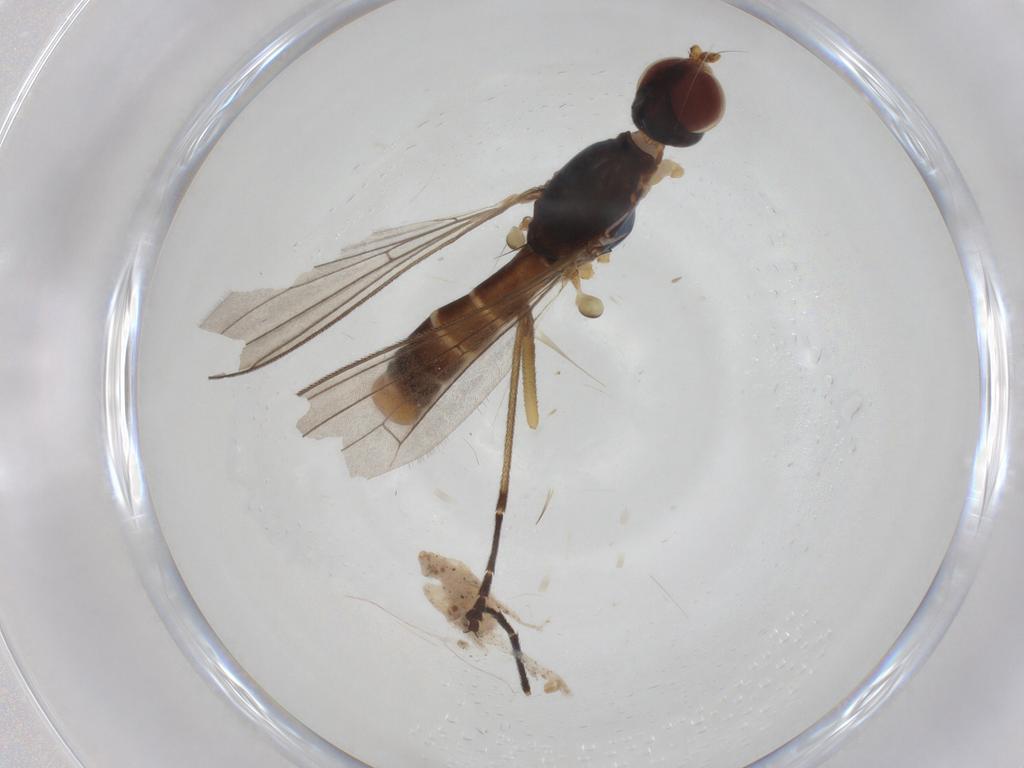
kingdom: Animalia
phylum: Arthropoda
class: Insecta
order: Diptera
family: Micropezidae
